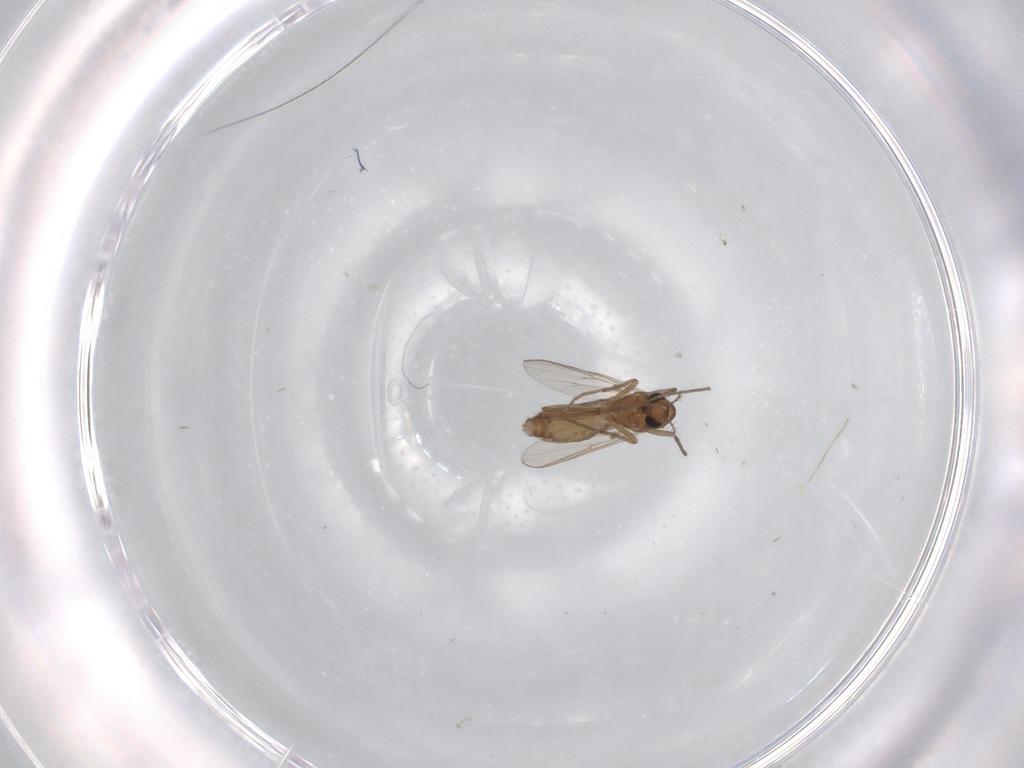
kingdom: Animalia
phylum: Arthropoda
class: Insecta
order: Diptera
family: Chironomidae
